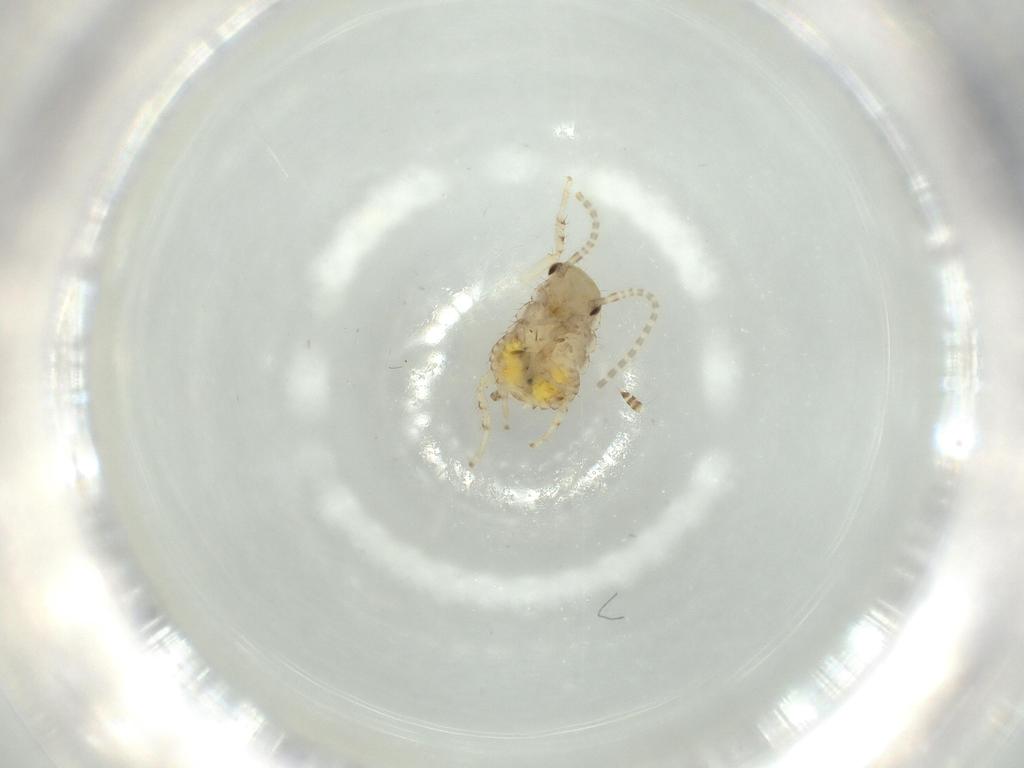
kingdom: Animalia
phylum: Arthropoda
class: Insecta
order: Blattodea
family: Ectobiidae
